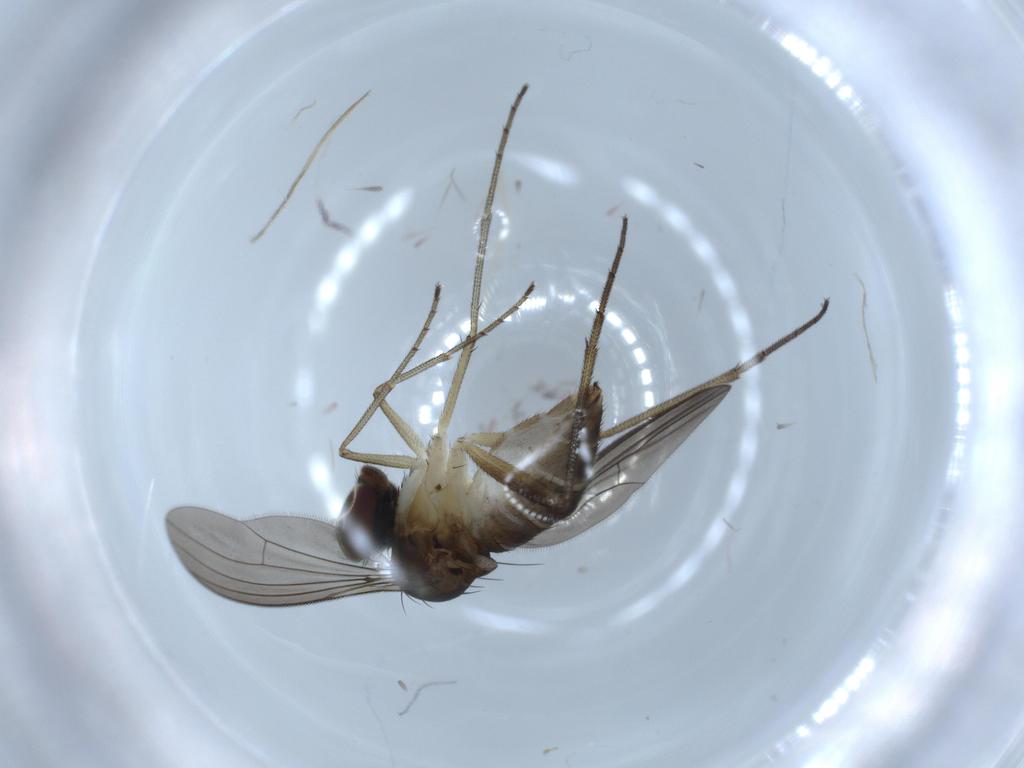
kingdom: Animalia
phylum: Arthropoda
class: Insecta
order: Diptera
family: Dolichopodidae
